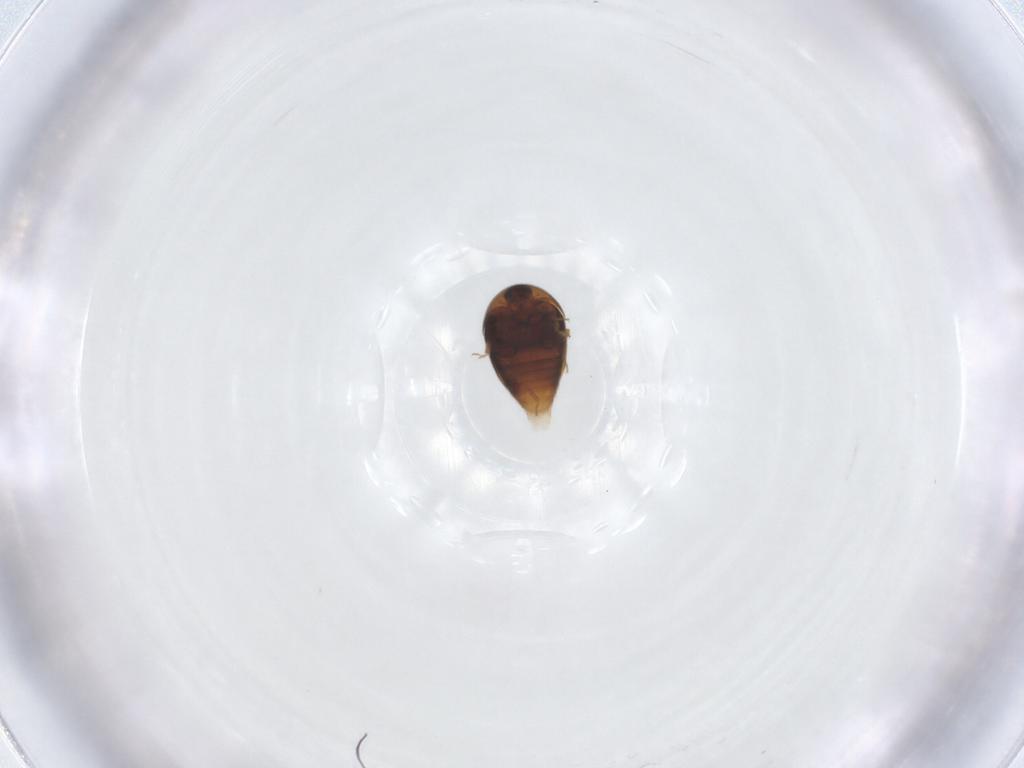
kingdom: Animalia
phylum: Arthropoda
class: Insecta
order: Coleoptera
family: Corylophidae
